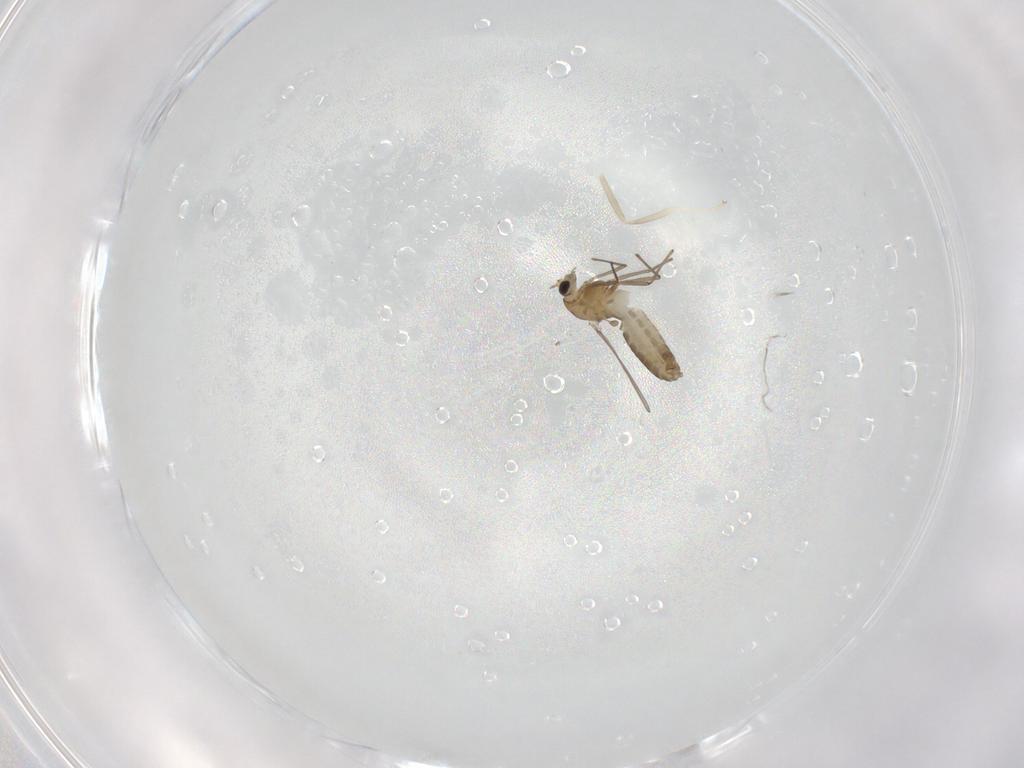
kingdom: Animalia
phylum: Arthropoda
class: Insecta
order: Diptera
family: Chironomidae
